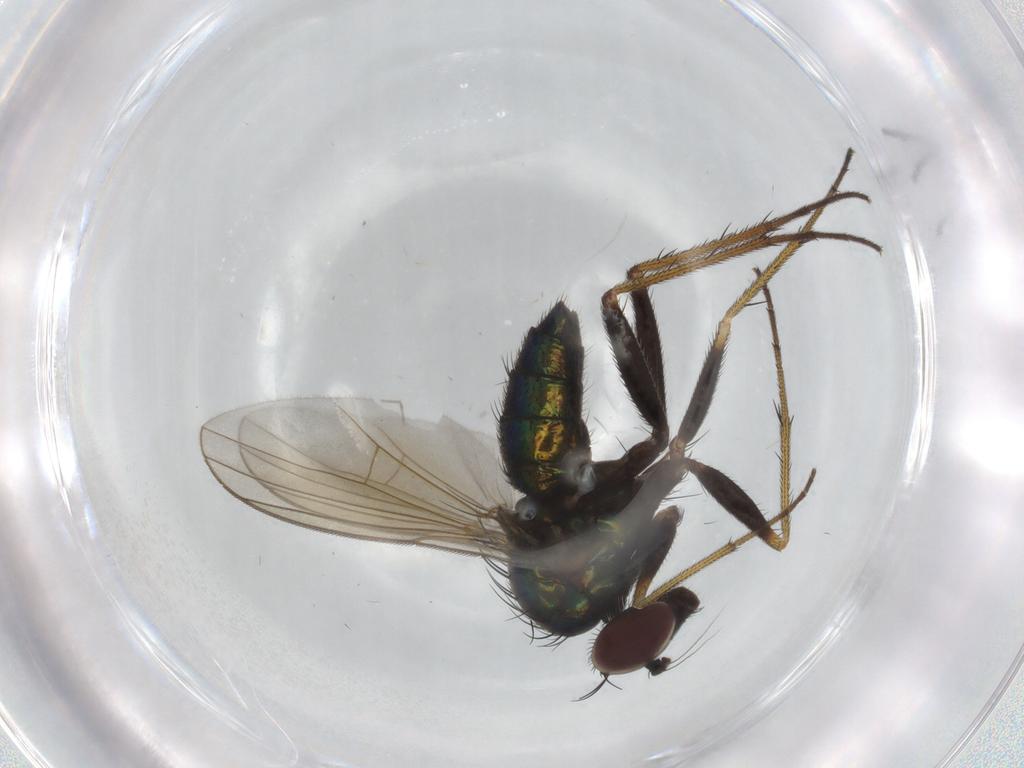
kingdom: Animalia
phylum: Arthropoda
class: Insecta
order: Diptera
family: Dolichopodidae
